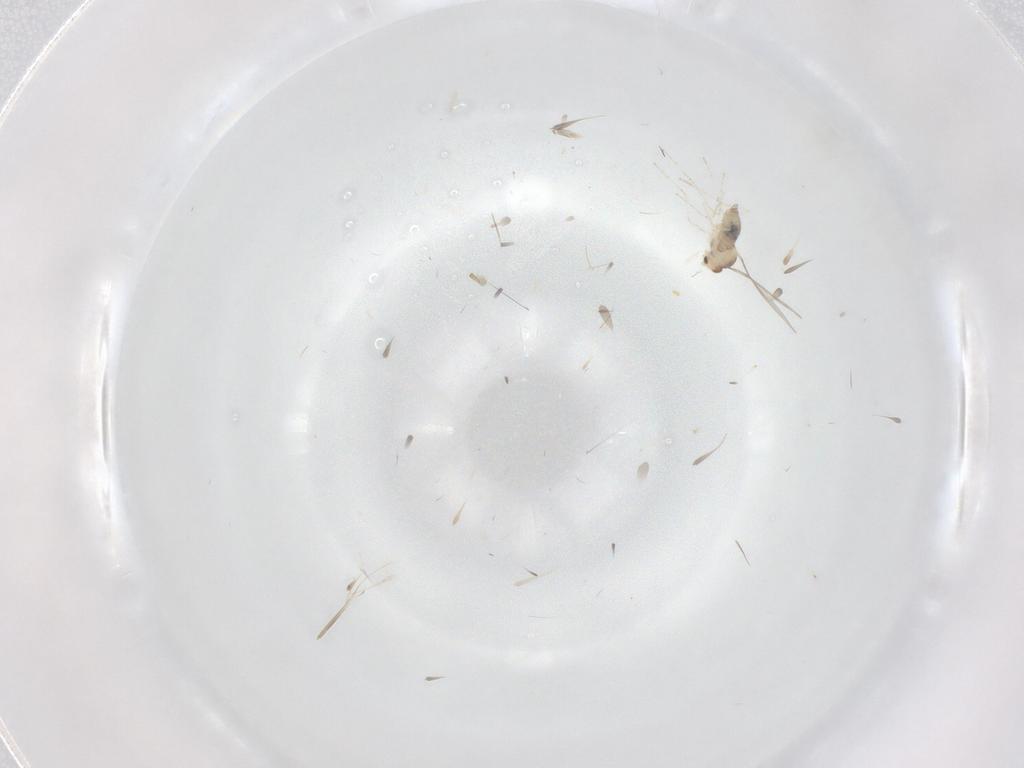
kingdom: Animalia
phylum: Arthropoda
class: Insecta
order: Diptera
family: Cecidomyiidae
